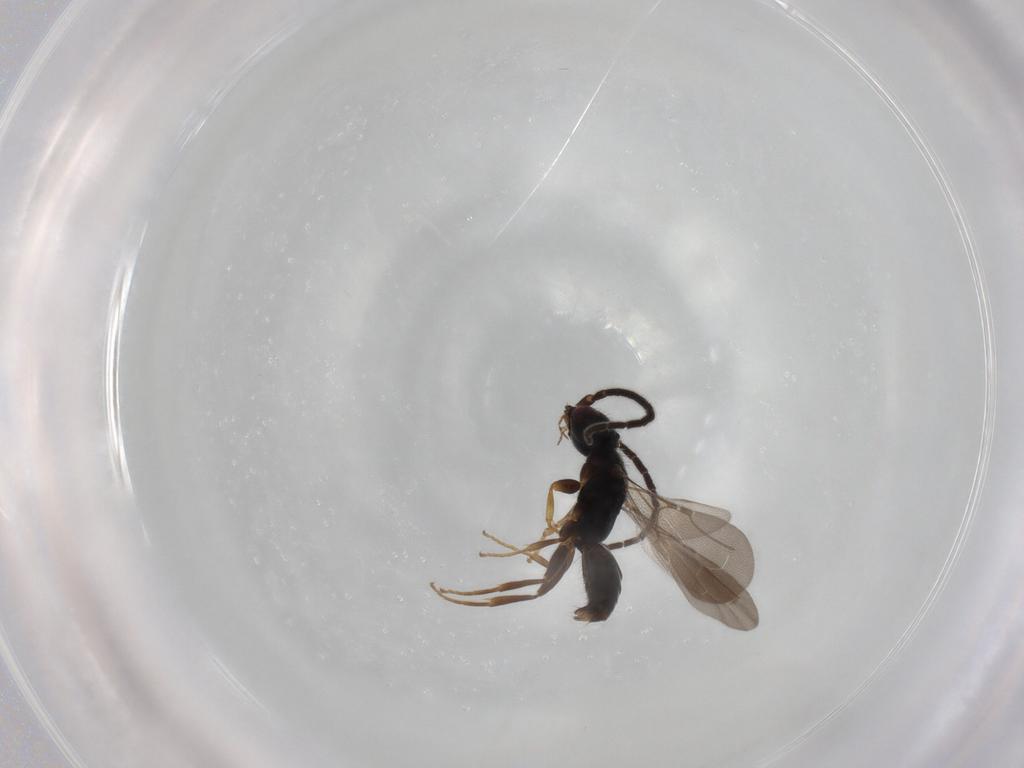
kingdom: Animalia
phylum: Arthropoda
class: Insecta
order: Hymenoptera
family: Bethylidae
